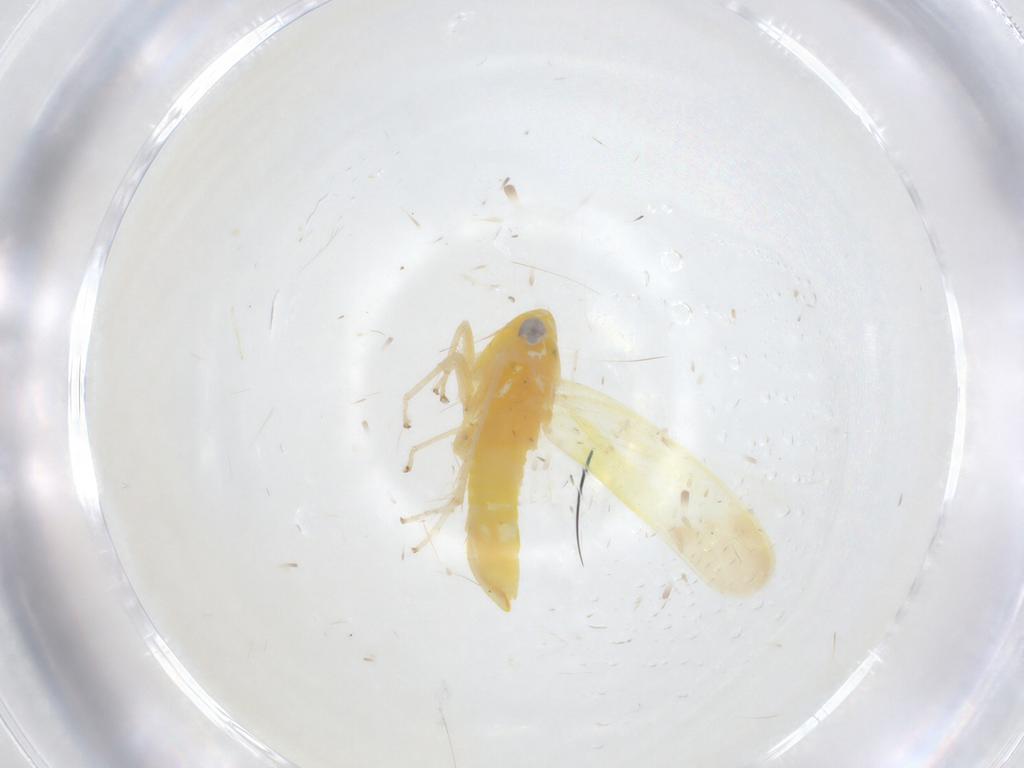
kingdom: Animalia
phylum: Arthropoda
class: Insecta
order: Hemiptera
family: Cicadellidae
